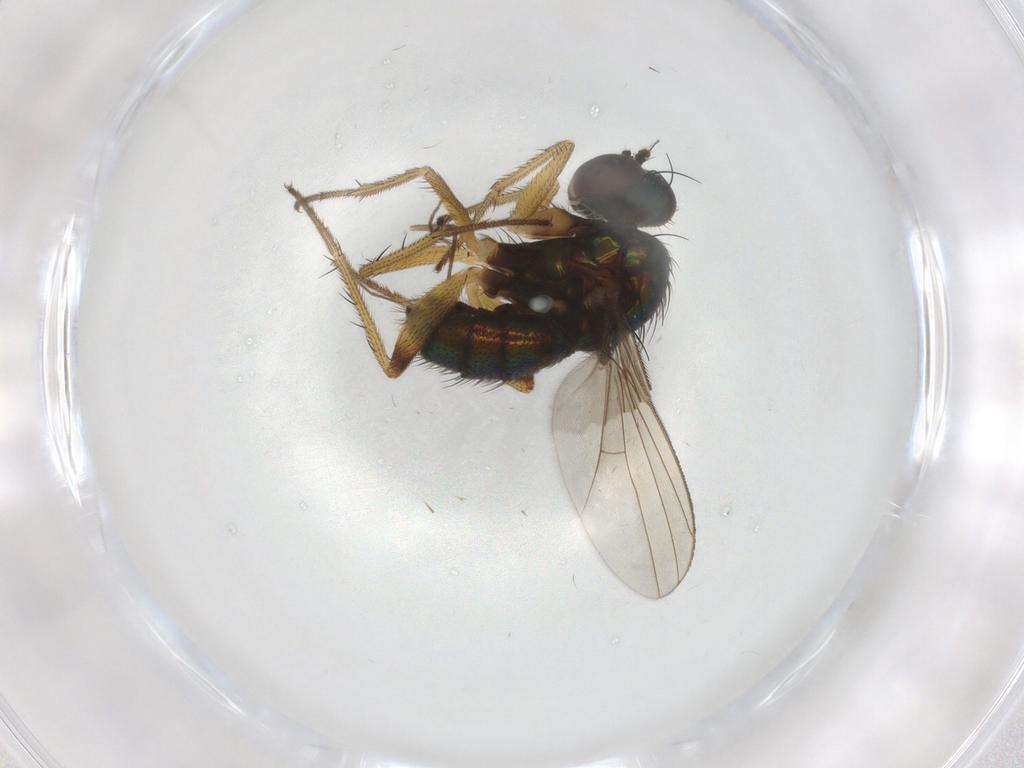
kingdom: Animalia
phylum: Arthropoda
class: Insecta
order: Diptera
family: Dolichopodidae
